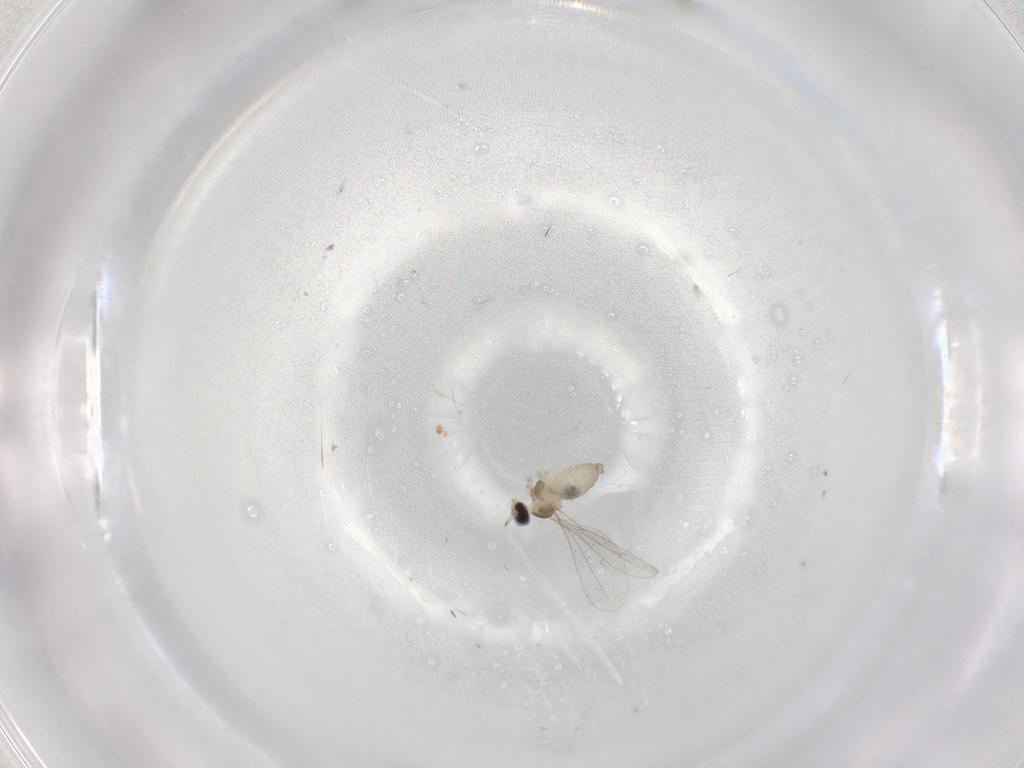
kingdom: Animalia
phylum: Arthropoda
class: Insecta
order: Diptera
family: Cecidomyiidae
